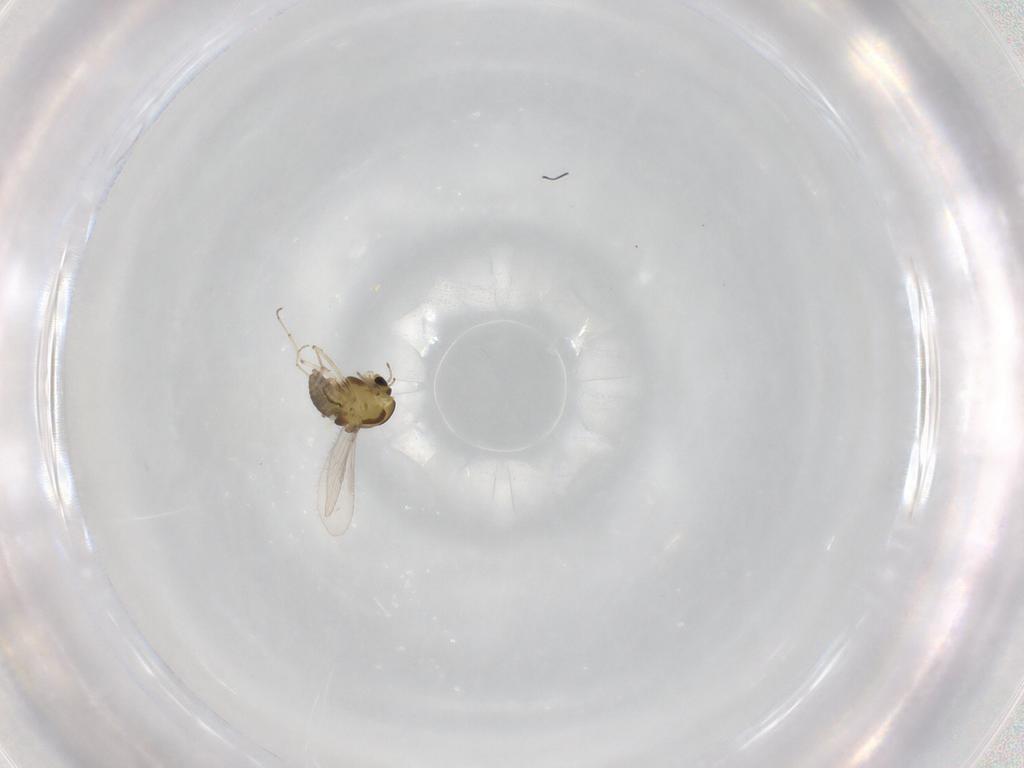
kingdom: Animalia
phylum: Arthropoda
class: Insecta
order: Diptera
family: Chironomidae
